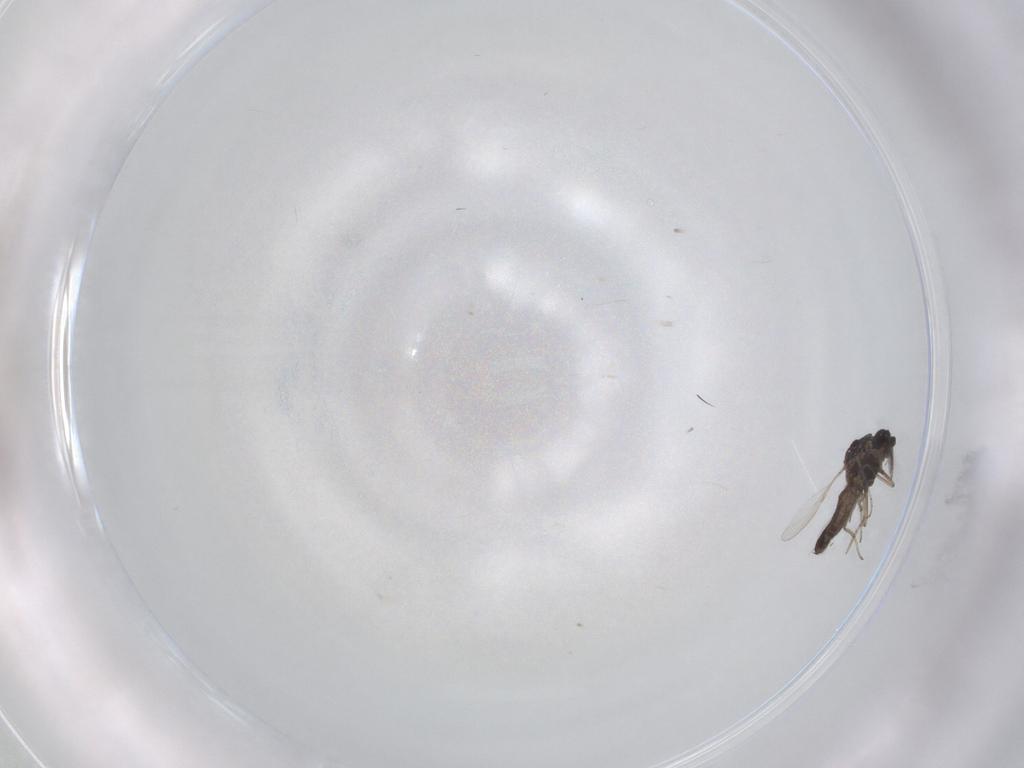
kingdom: Animalia
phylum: Arthropoda
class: Insecta
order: Diptera
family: Ceratopogonidae
